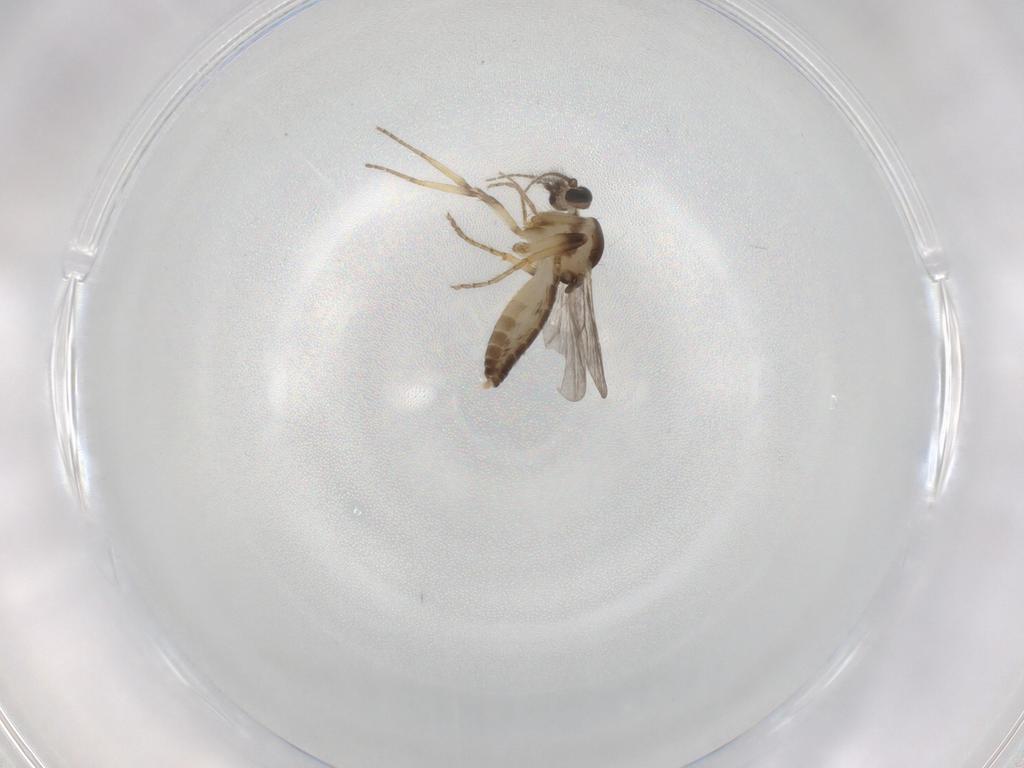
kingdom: Animalia
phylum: Arthropoda
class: Insecta
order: Diptera
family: Ceratopogonidae
